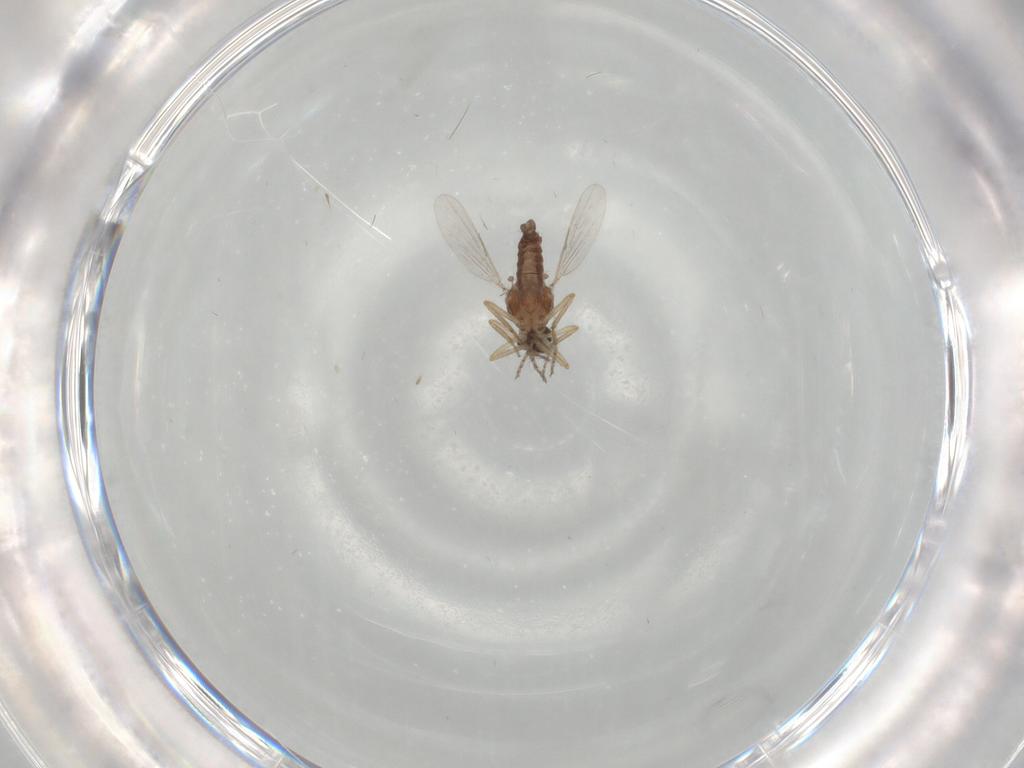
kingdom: Animalia
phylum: Arthropoda
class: Insecta
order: Diptera
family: Ceratopogonidae
